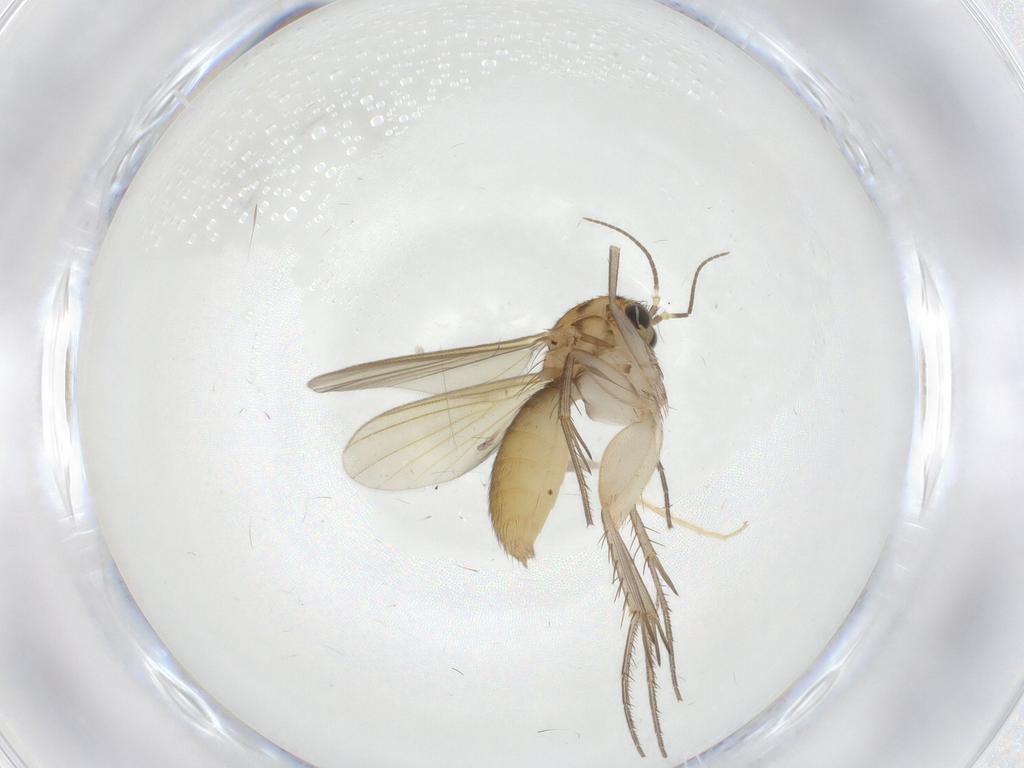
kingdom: Animalia
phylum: Arthropoda
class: Insecta
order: Diptera
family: Mycetophilidae
